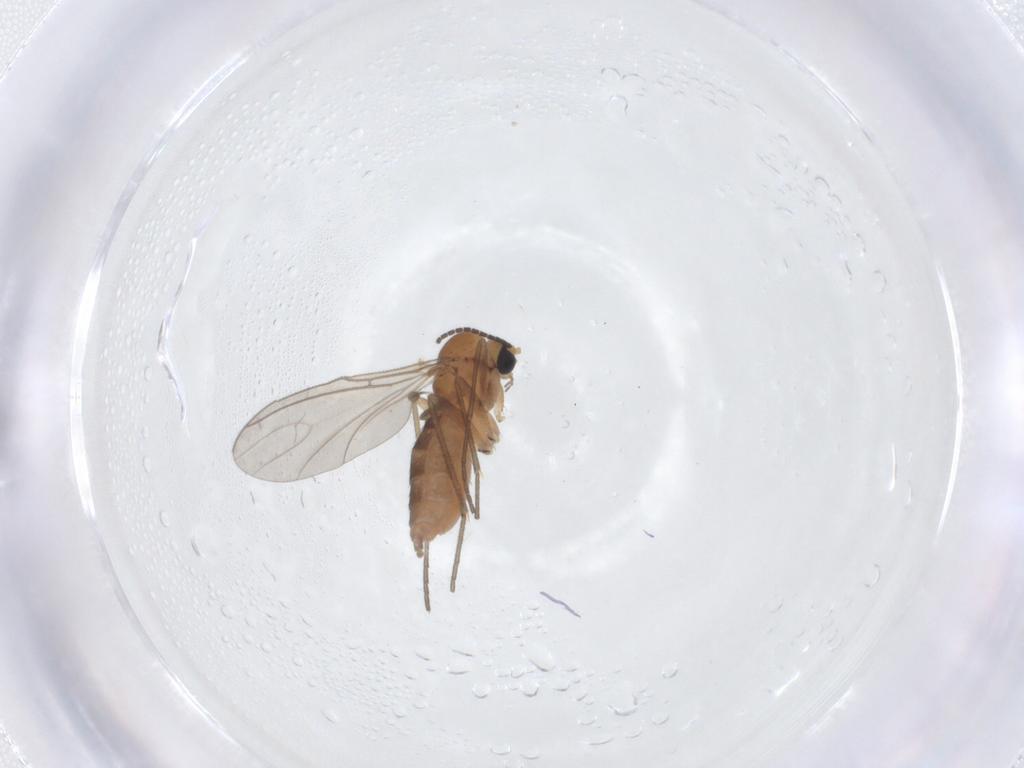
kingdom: Animalia
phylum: Arthropoda
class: Insecta
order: Diptera
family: Sciaridae
